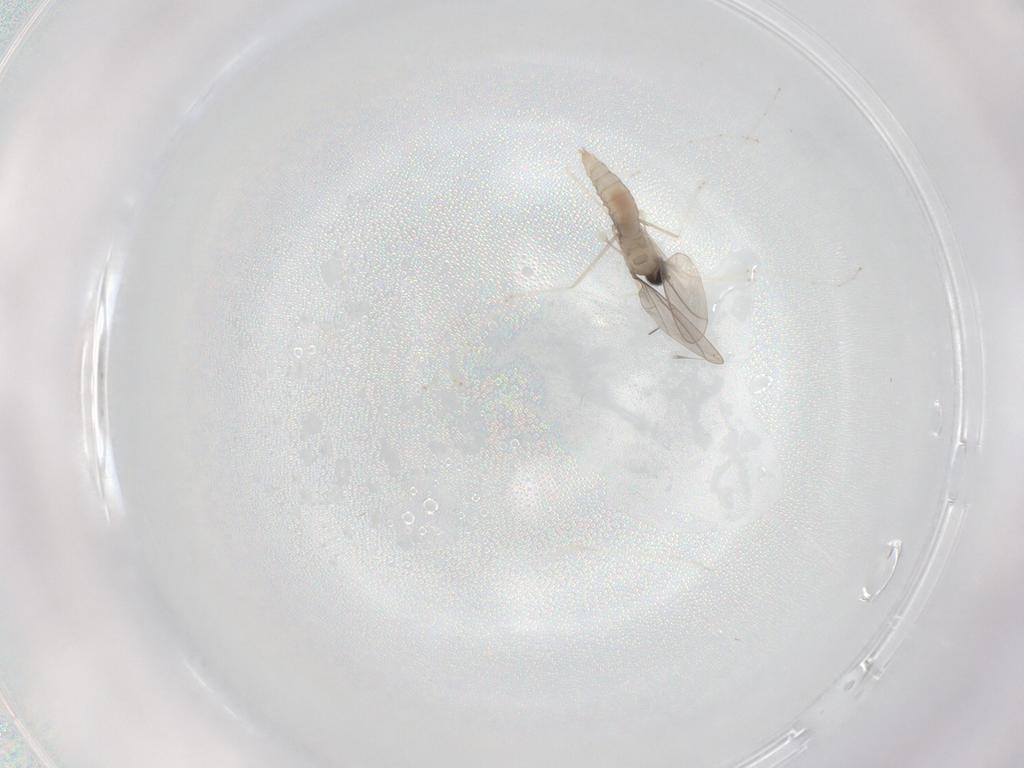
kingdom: Animalia
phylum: Arthropoda
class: Insecta
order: Diptera
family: Cecidomyiidae
